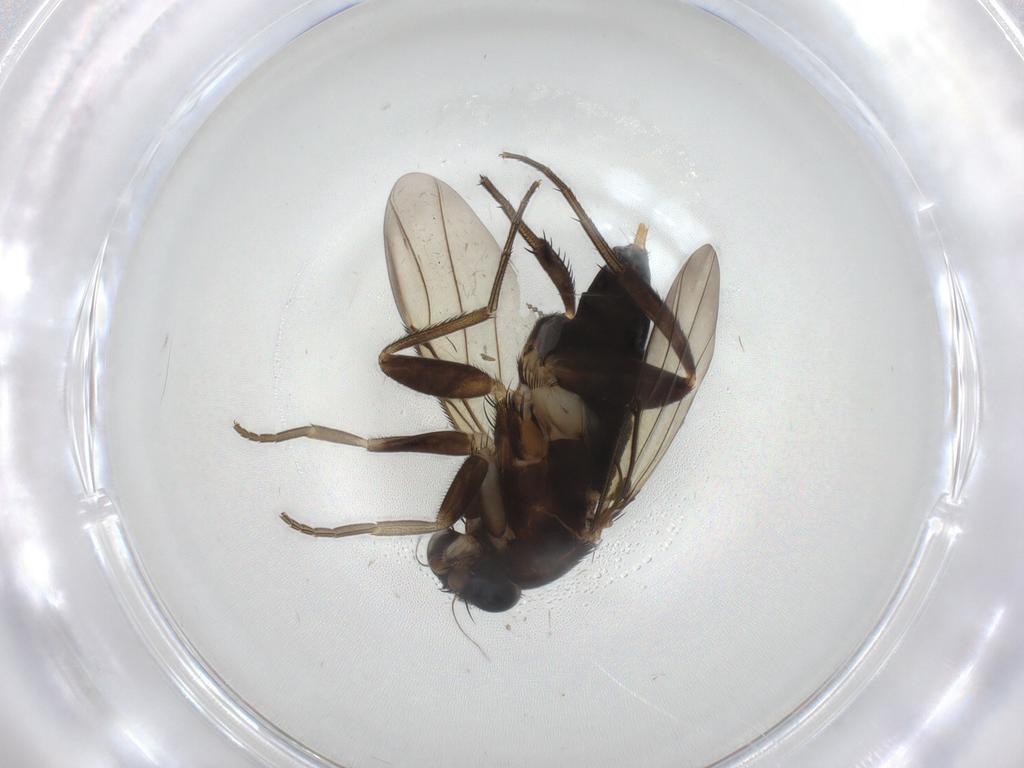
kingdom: Animalia
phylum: Arthropoda
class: Insecta
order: Diptera
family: Phoridae
